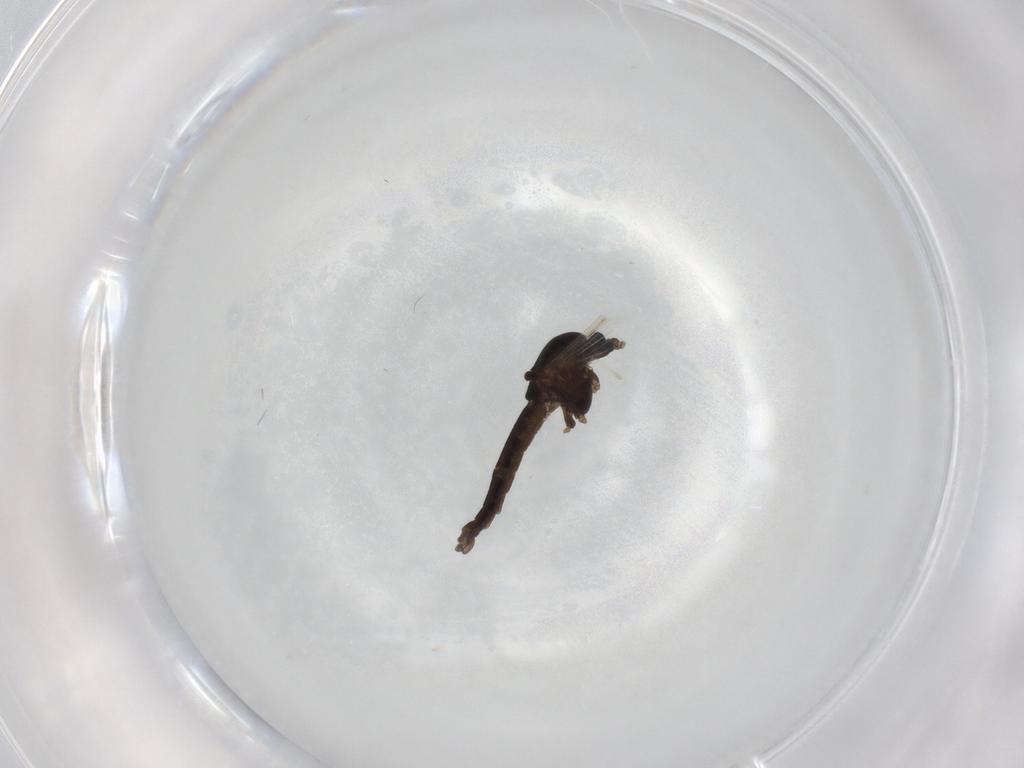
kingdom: Animalia
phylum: Arthropoda
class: Insecta
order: Diptera
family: Chironomidae
